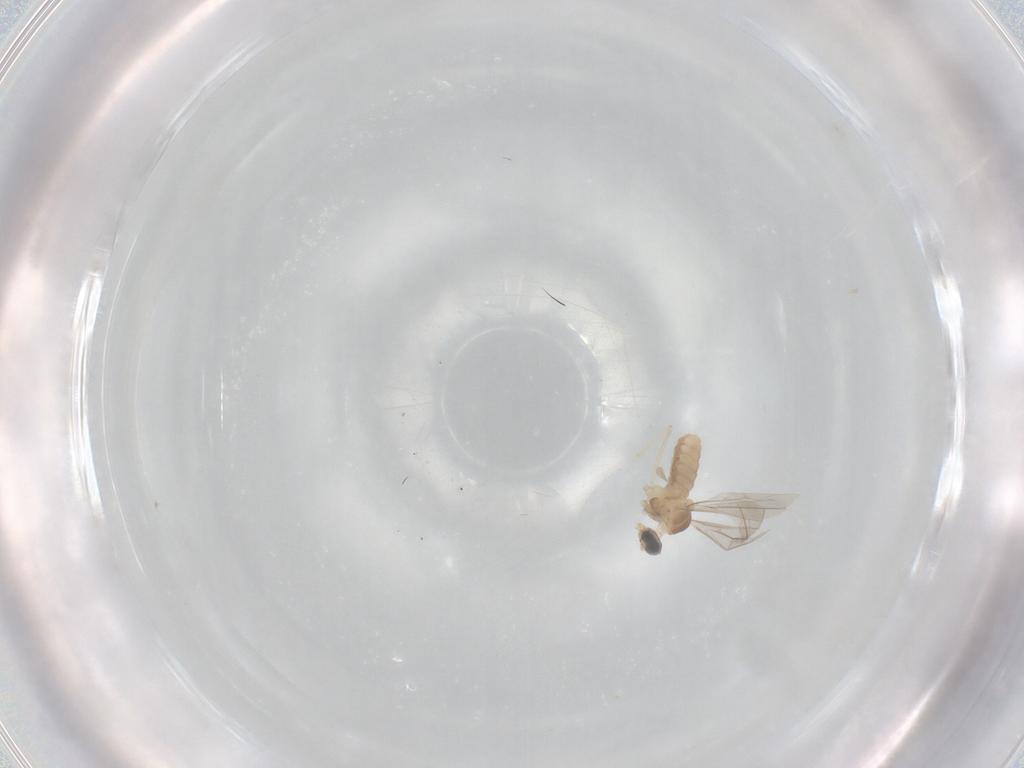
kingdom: Animalia
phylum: Arthropoda
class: Insecta
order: Diptera
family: Cecidomyiidae
